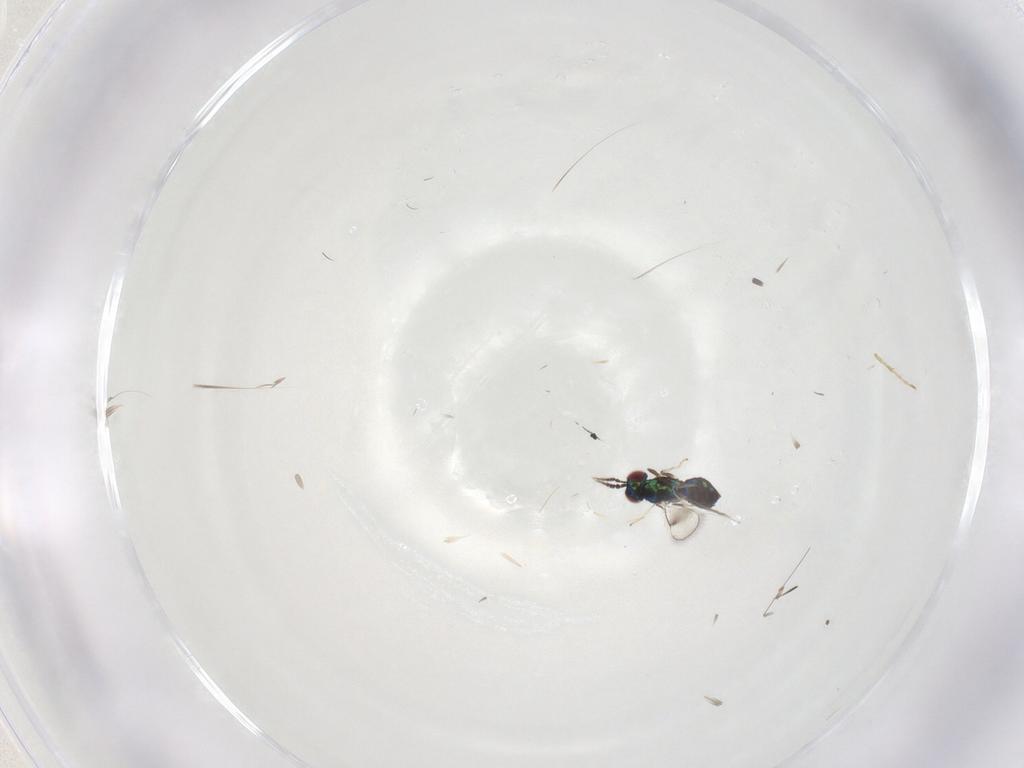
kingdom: Animalia
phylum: Arthropoda
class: Insecta
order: Hymenoptera
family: Eulophidae
